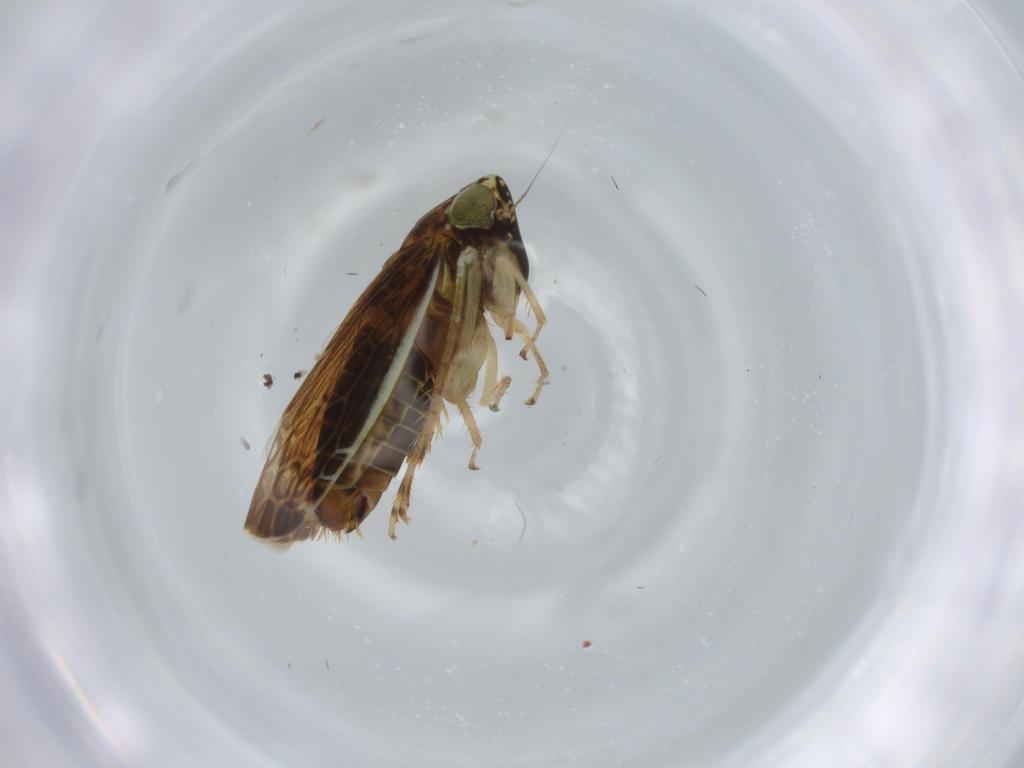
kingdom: Animalia
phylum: Arthropoda
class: Insecta
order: Hemiptera
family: Cicadellidae
